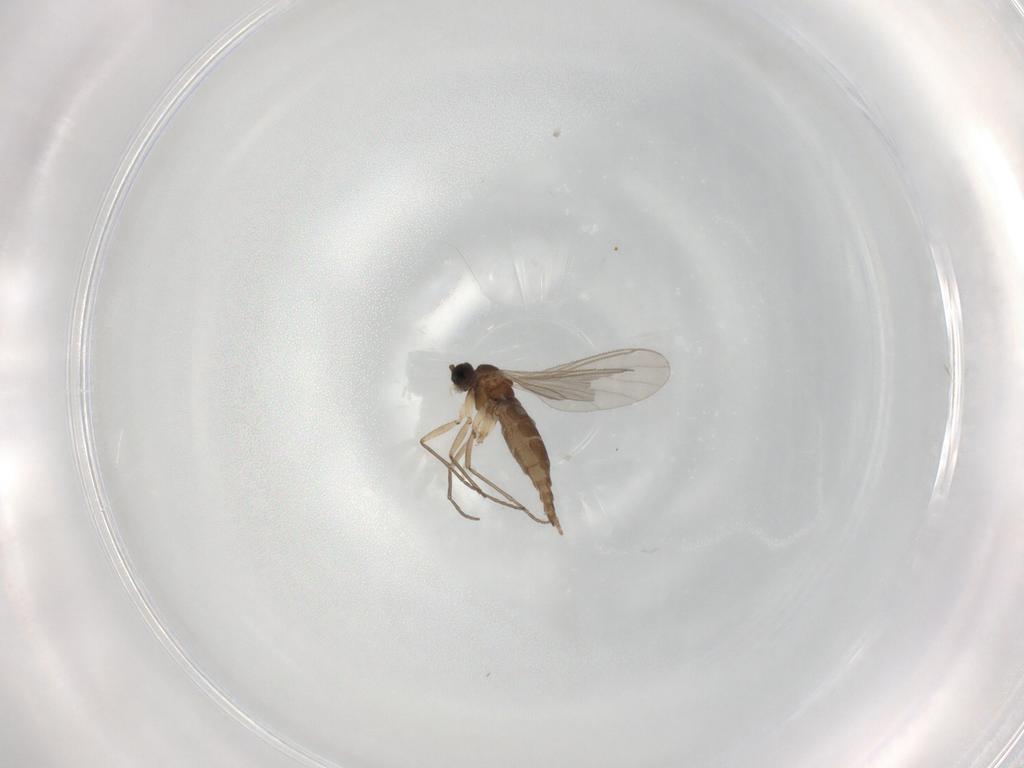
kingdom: Animalia
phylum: Arthropoda
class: Insecta
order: Diptera
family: Sciaridae
